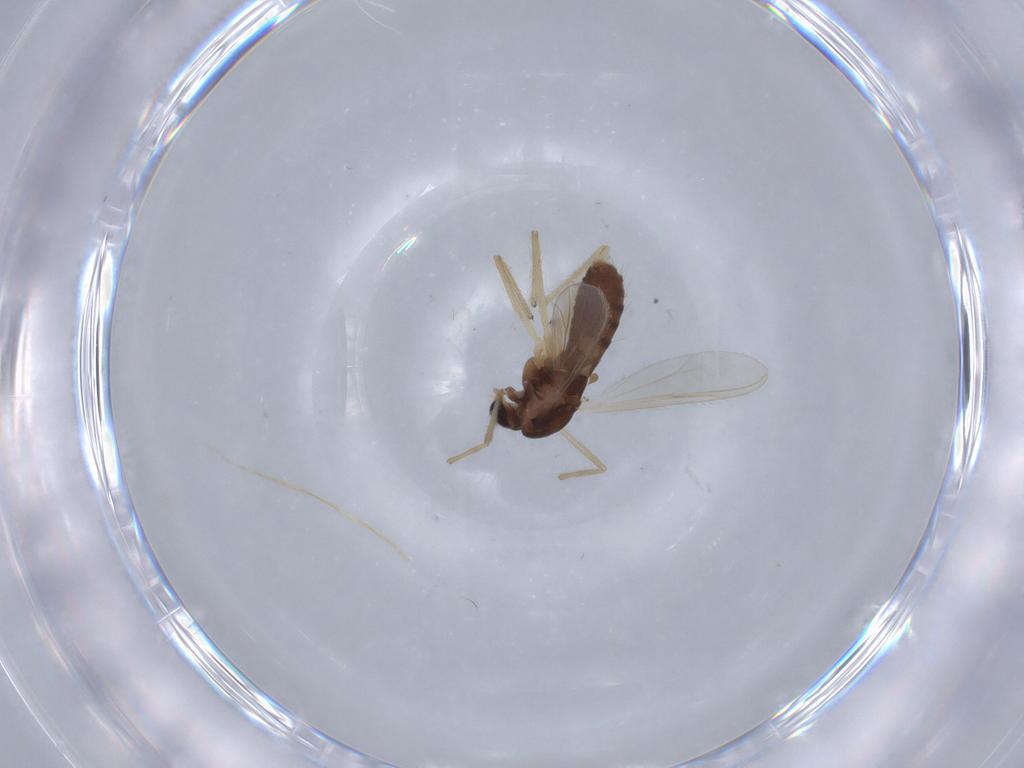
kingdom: Animalia
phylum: Arthropoda
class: Insecta
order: Diptera
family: Chironomidae
